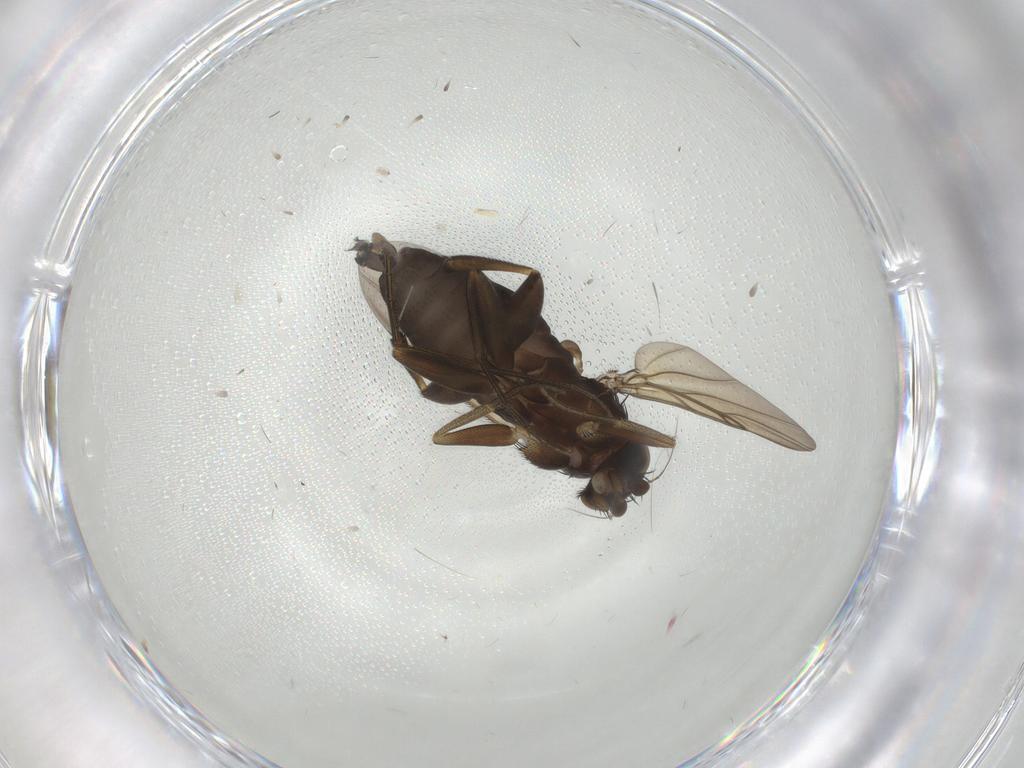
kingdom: Animalia
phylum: Arthropoda
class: Insecta
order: Diptera
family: Phoridae
